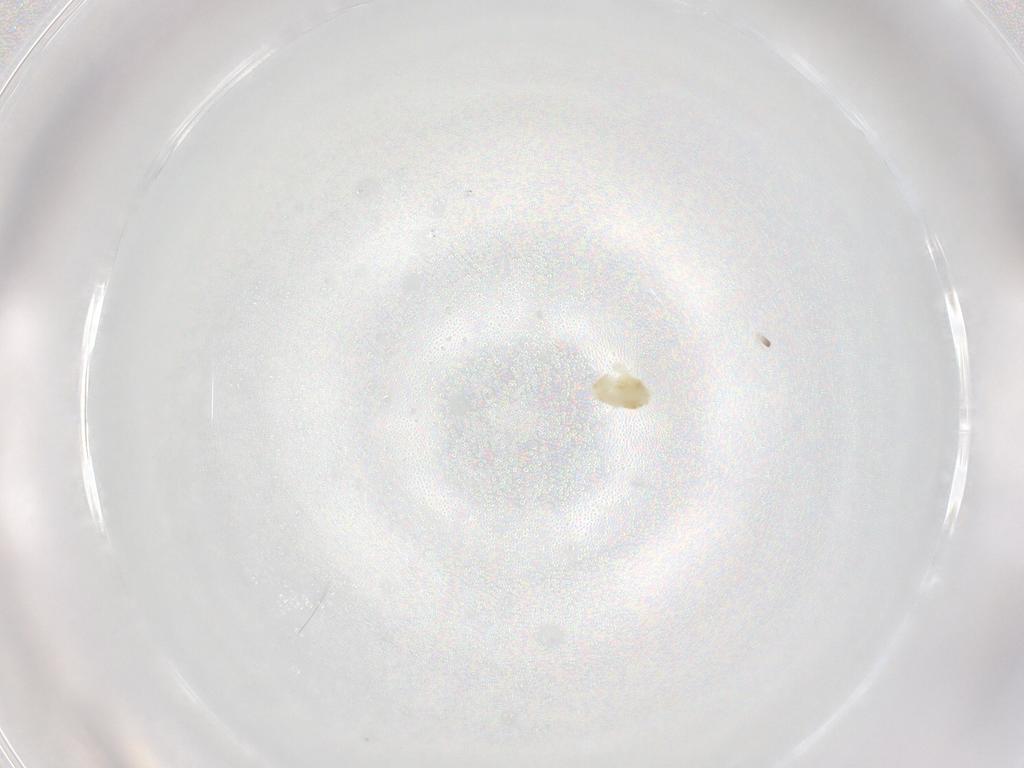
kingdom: Animalia
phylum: Arthropoda
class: Arachnida
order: Trombidiformes
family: Eupodidae
